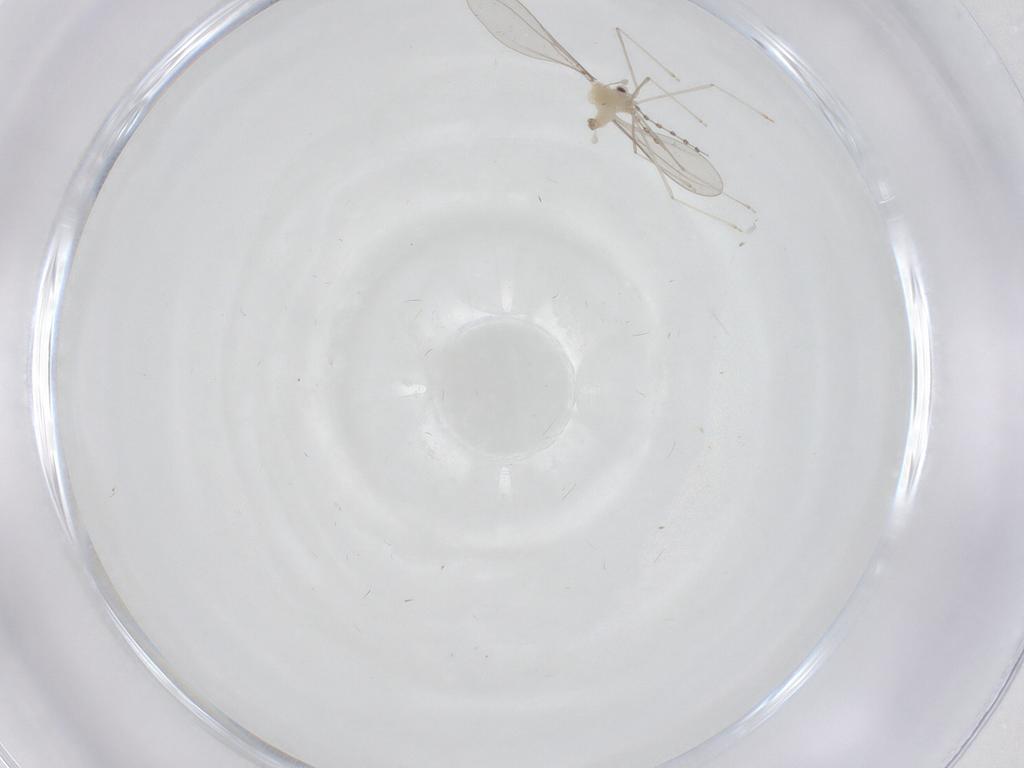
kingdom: Animalia
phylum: Arthropoda
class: Insecta
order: Diptera
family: Cecidomyiidae
